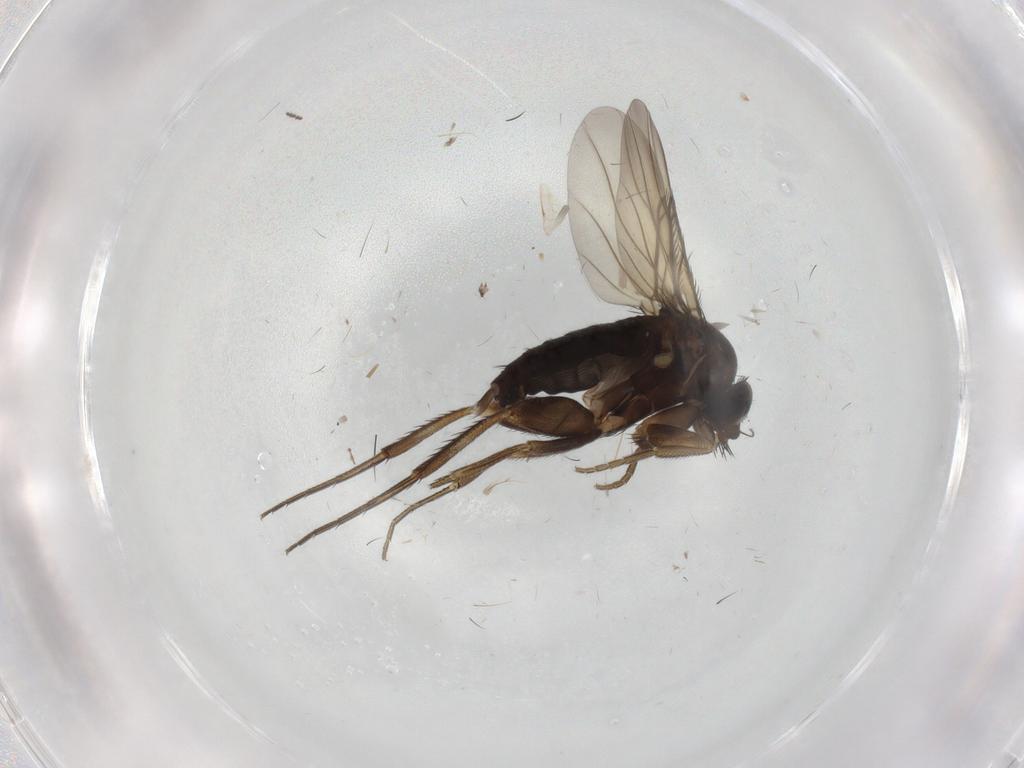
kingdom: Animalia
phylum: Arthropoda
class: Insecta
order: Diptera
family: Phoridae
